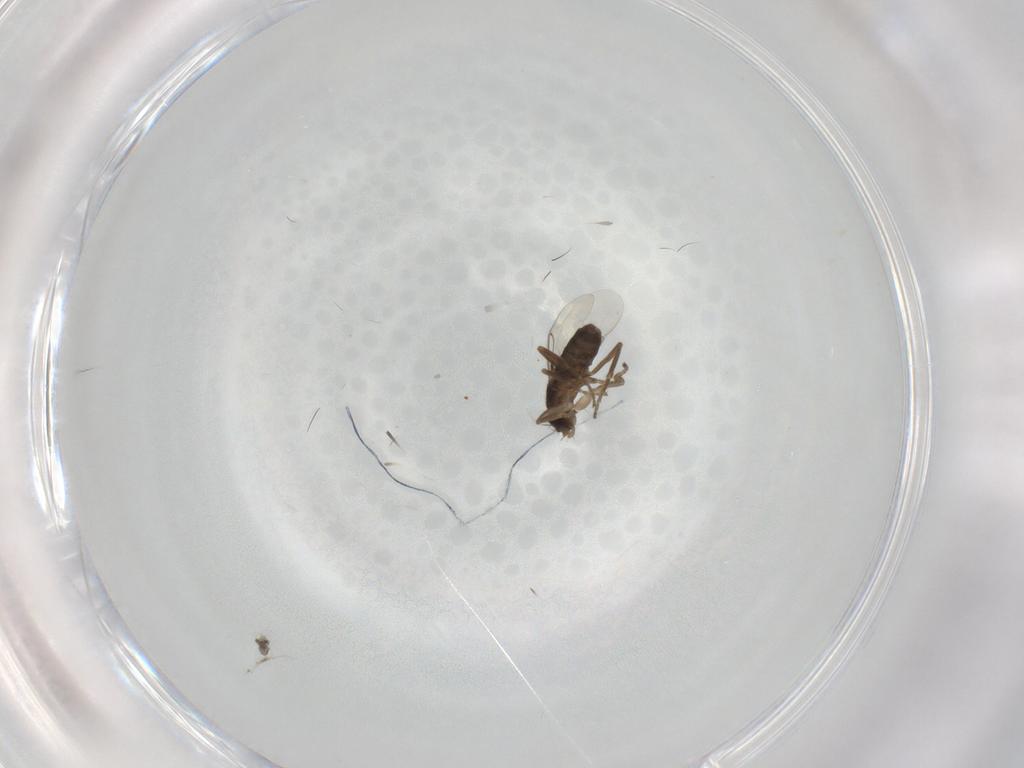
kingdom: Animalia
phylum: Arthropoda
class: Insecta
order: Diptera
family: Phoridae
